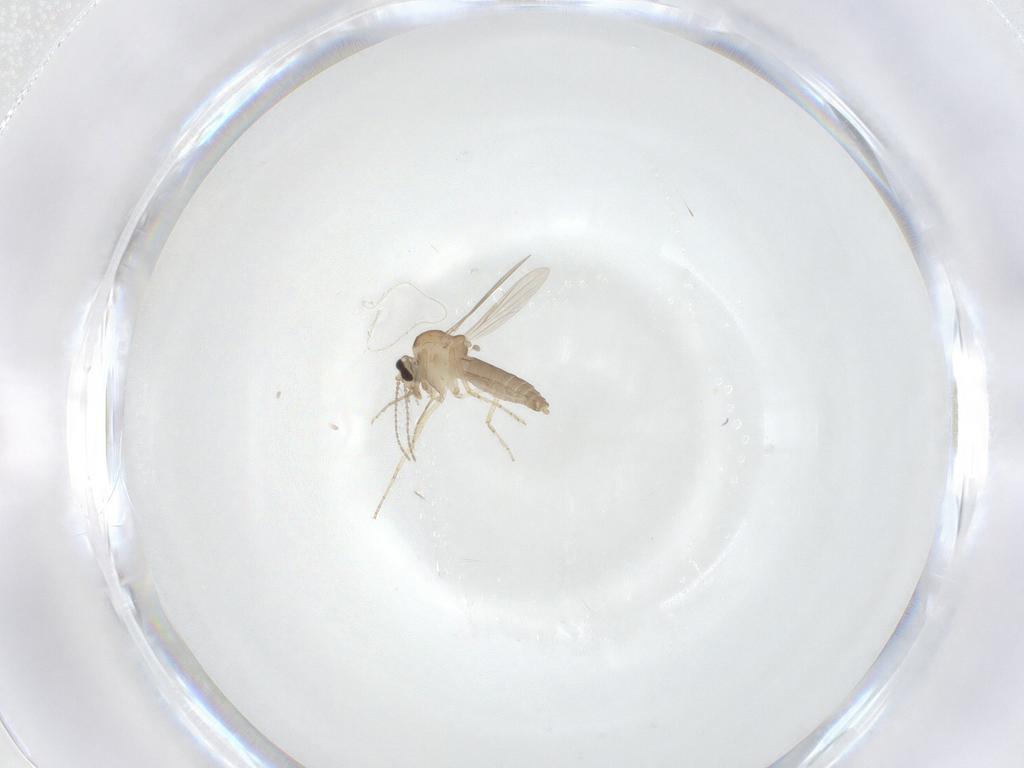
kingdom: Animalia
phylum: Arthropoda
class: Insecta
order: Diptera
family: Ceratopogonidae
